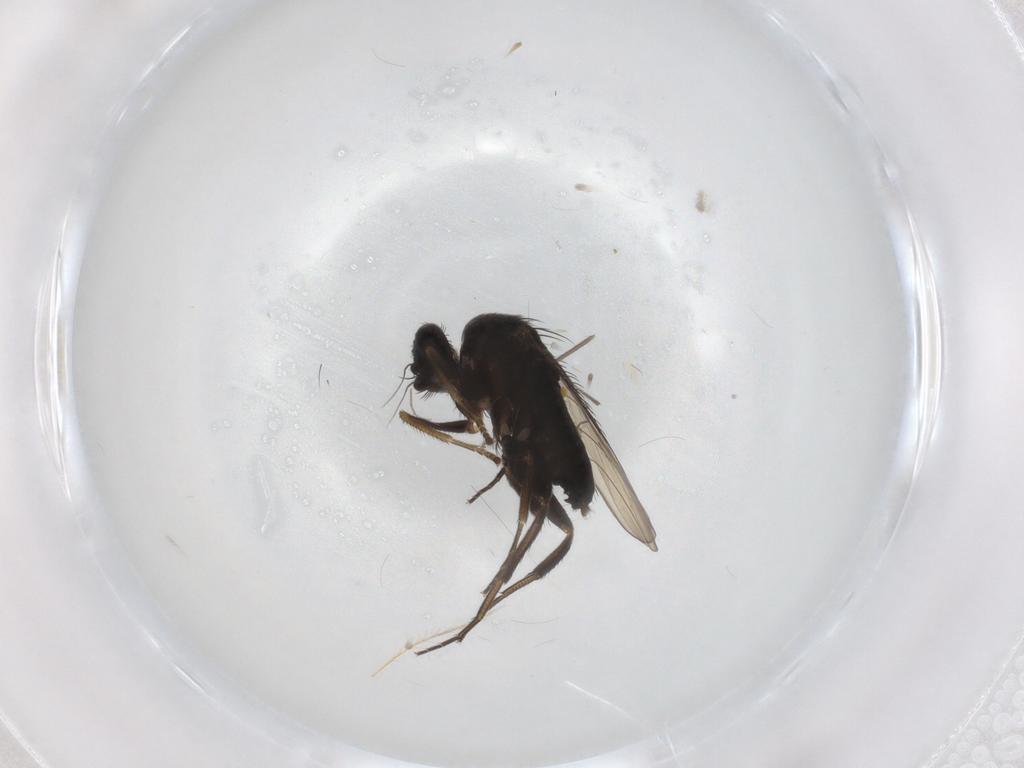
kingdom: Animalia
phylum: Arthropoda
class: Insecta
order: Diptera
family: Phoridae
